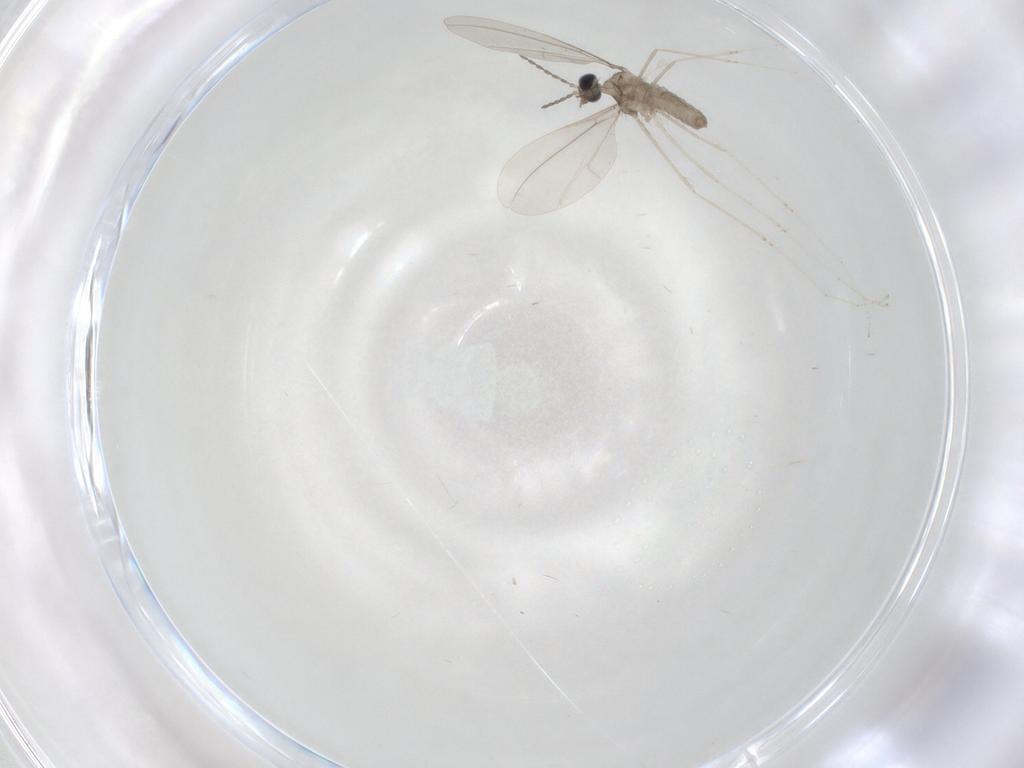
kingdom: Animalia
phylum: Arthropoda
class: Insecta
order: Diptera
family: Cecidomyiidae
